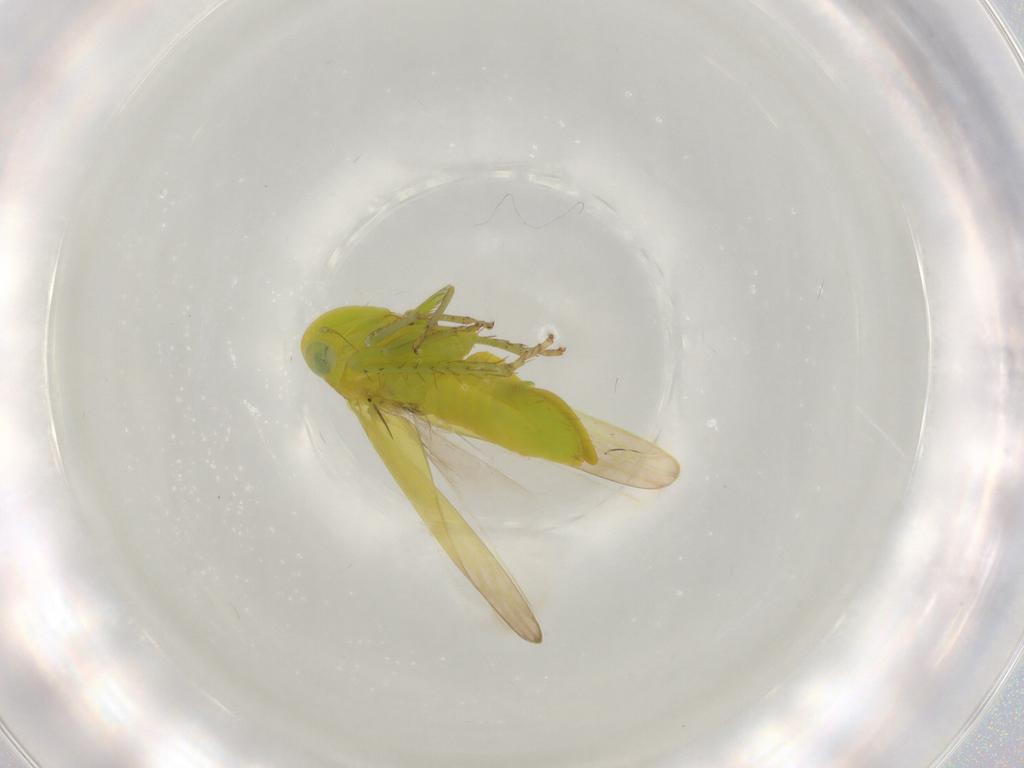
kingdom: Animalia
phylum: Arthropoda
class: Insecta
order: Hemiptera
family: Cicadellidae
